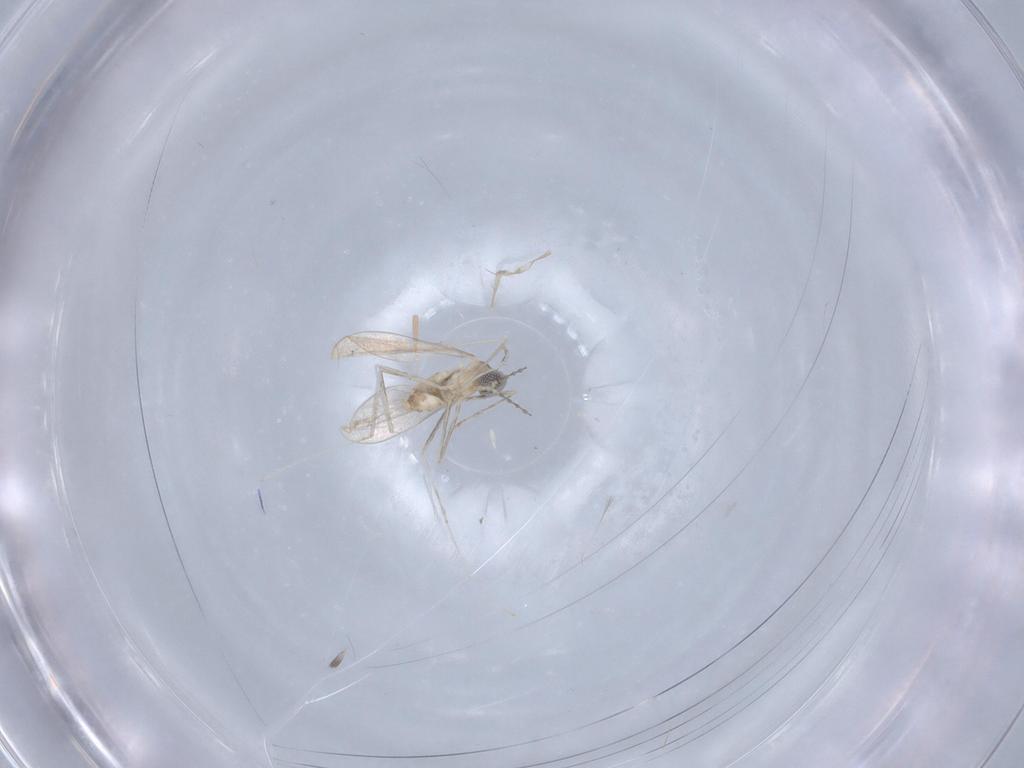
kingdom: Animalia
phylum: Arthropoda
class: Insecta
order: Diptera
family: Cecidomyiidae
